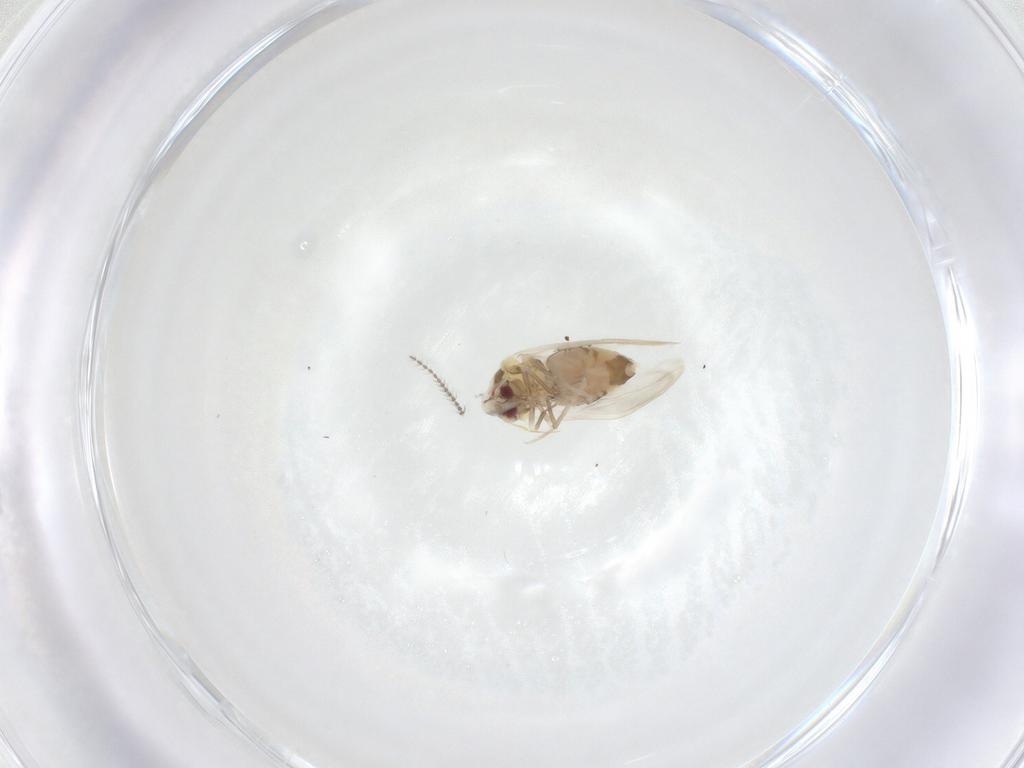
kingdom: Animalia
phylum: Arthropoda
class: Insecta
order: Hemiptera
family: Aleyrodidae
